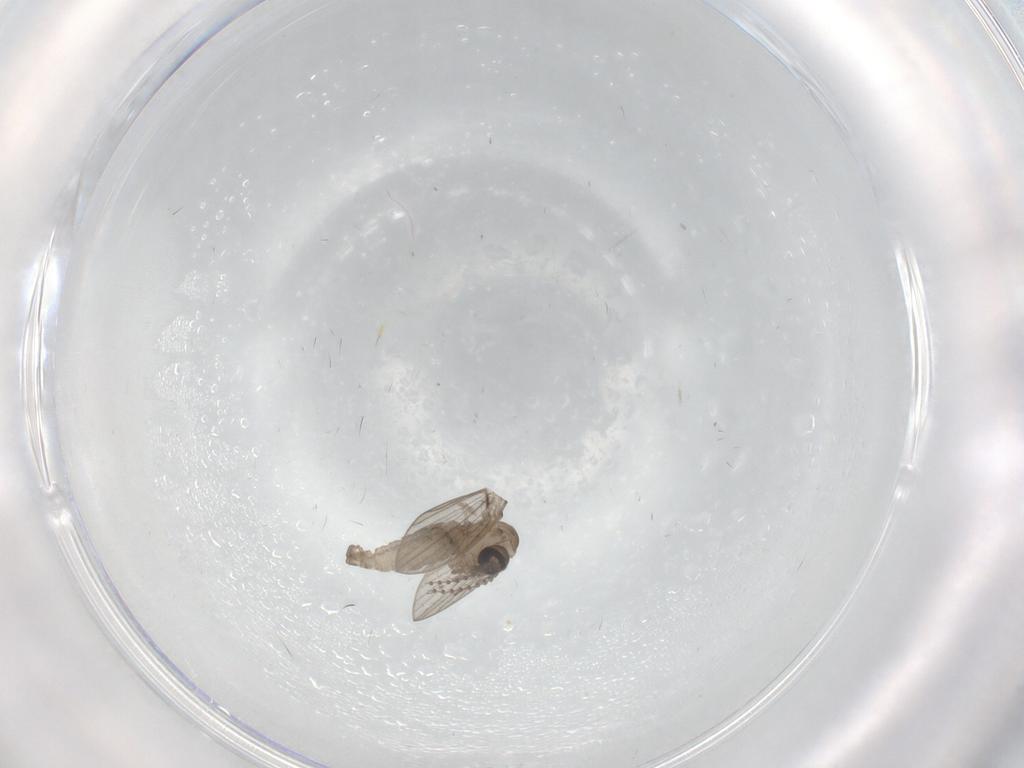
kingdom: Animalia
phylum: Arthropoda
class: Insecta
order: Diptera
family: Psychodidae
